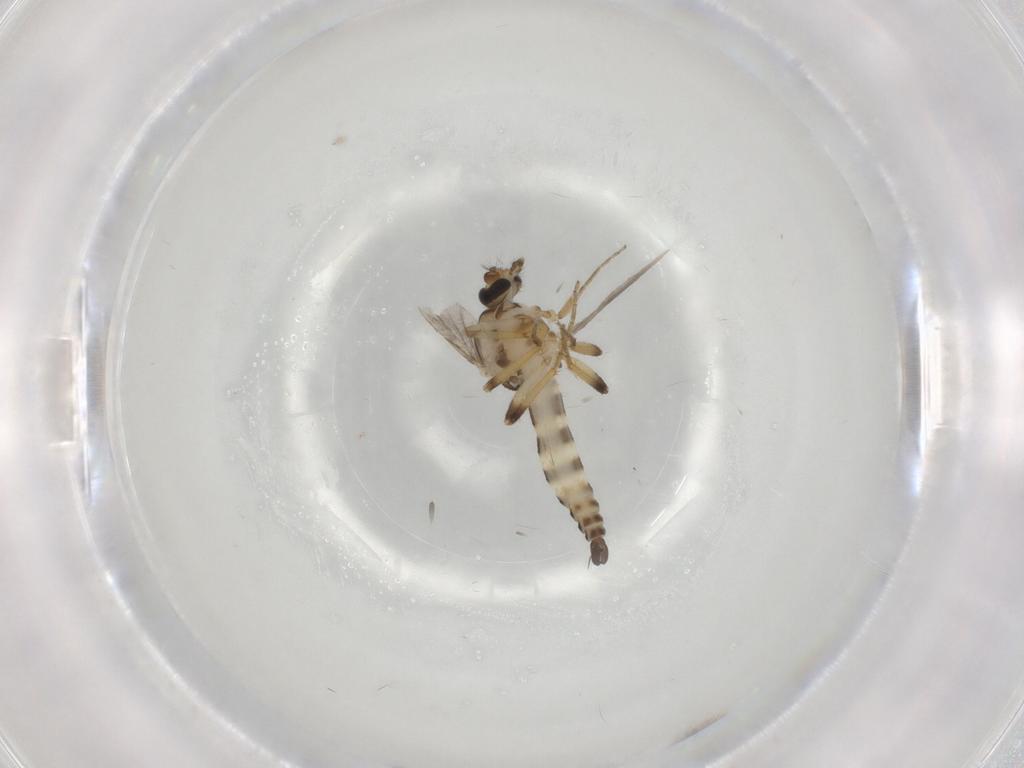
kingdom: Animalia
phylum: Arthropoda
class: Insecta
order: Diptera
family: Ceratopogonidae
